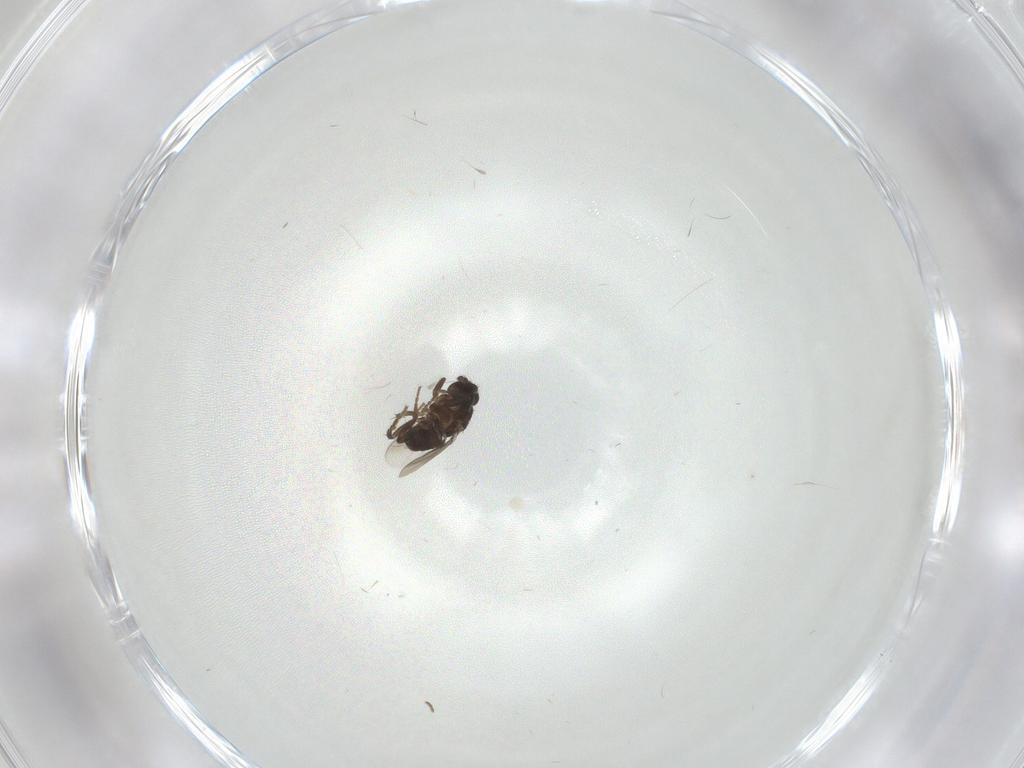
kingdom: Animalia
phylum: Arthropoda
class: Insecta
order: Diptera
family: Sphaeroceridae
